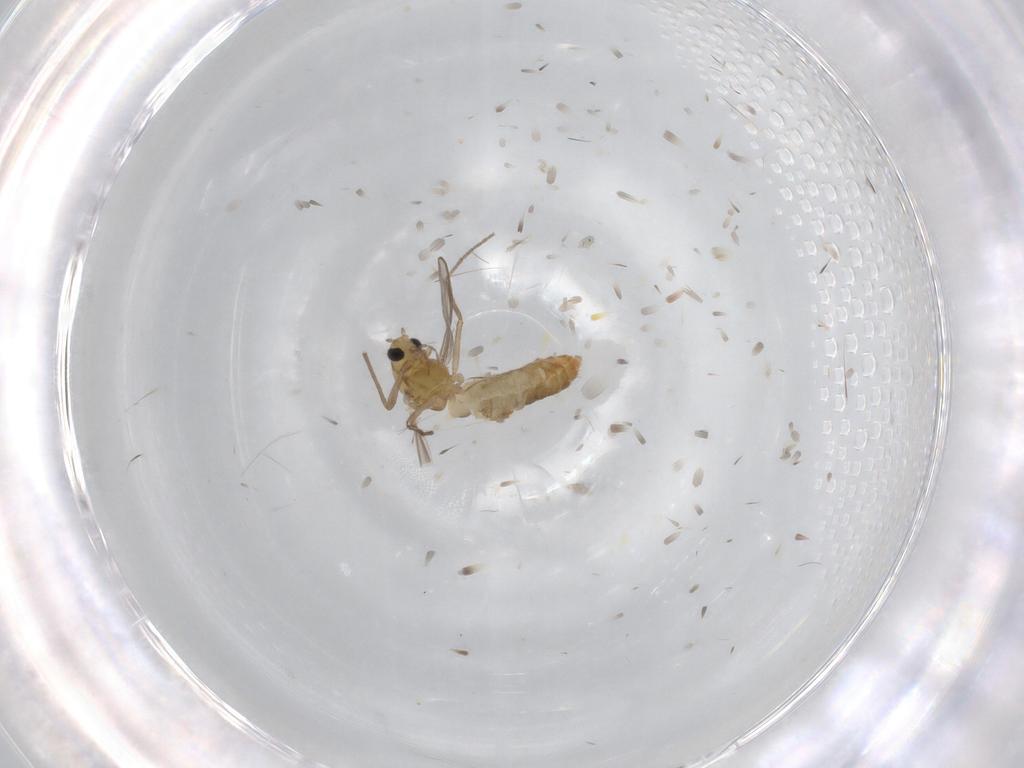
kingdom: Animalia
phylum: Arthropoda
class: Insecta
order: Diptera
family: Chironomidae
